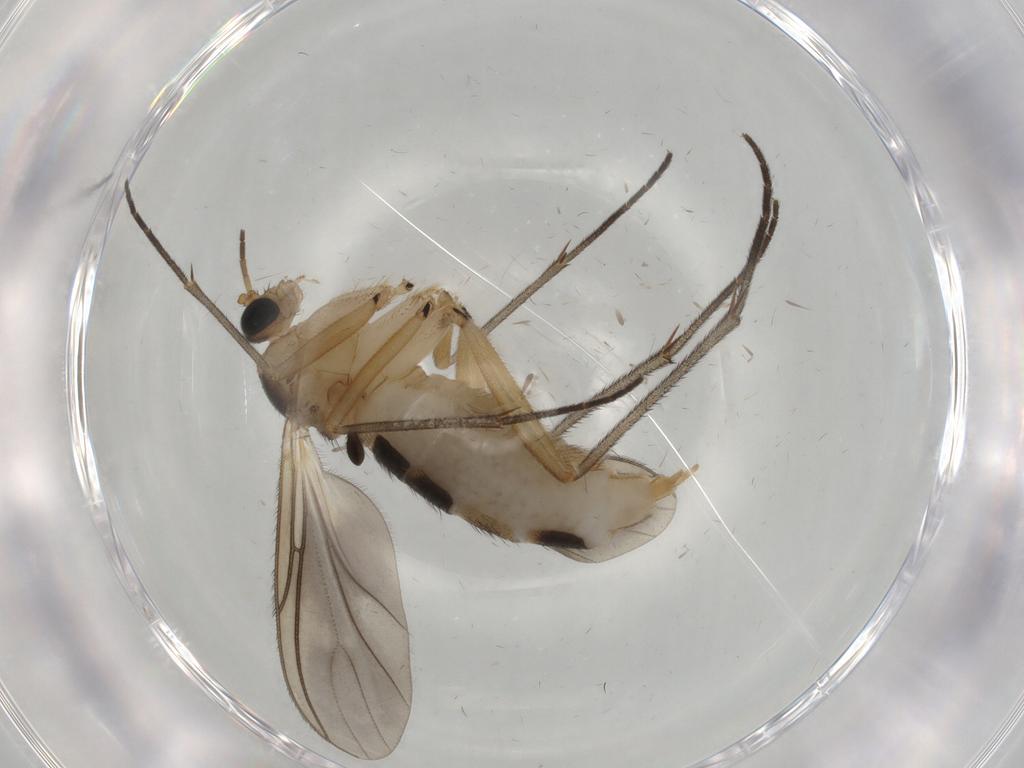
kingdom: Animalia
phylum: Arthropoda
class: Insecta
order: Diptera
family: Sciaridae
